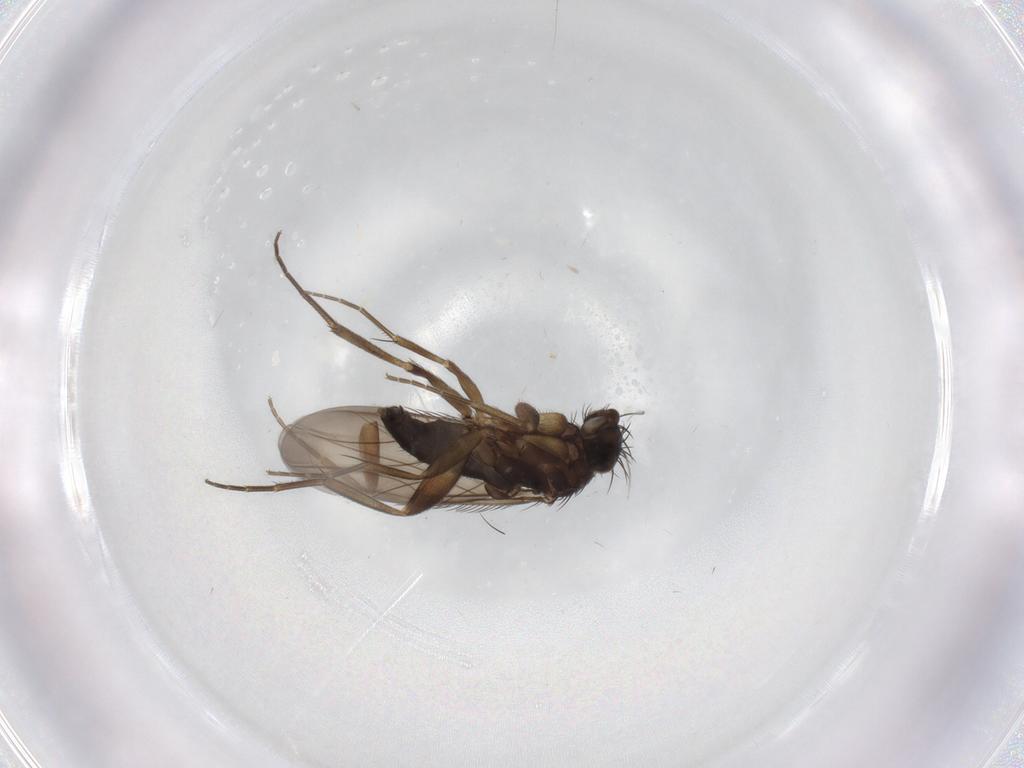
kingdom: Animalia
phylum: Arthropoda
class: Insecta
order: Diptera
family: Phoridae
